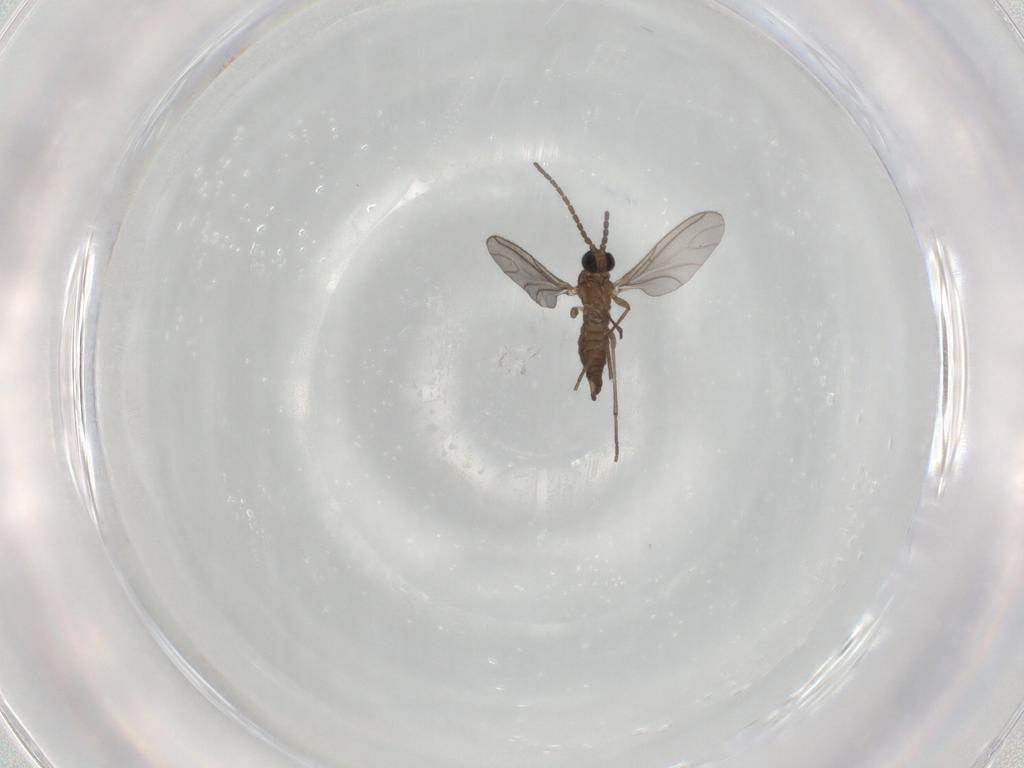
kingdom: Animalia
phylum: Arthropoda
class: Insecta
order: Diptera
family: Sciaridae
